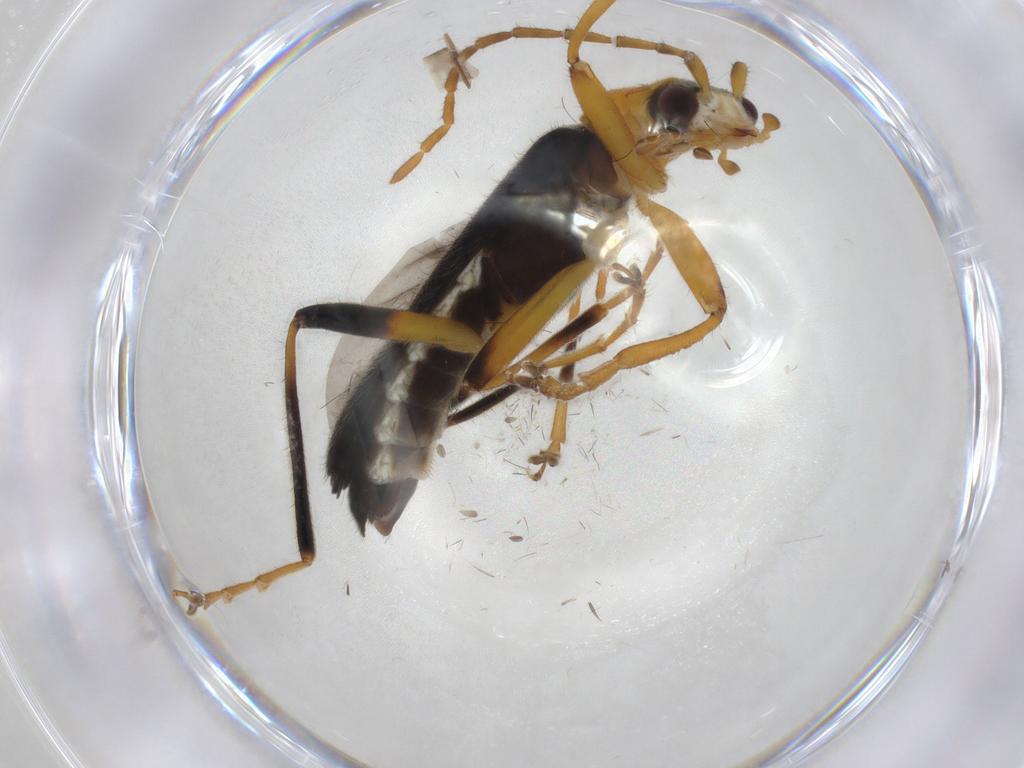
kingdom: Animalia
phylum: Arthropoda
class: Insecta
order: Coleoptera
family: Cantharidae
